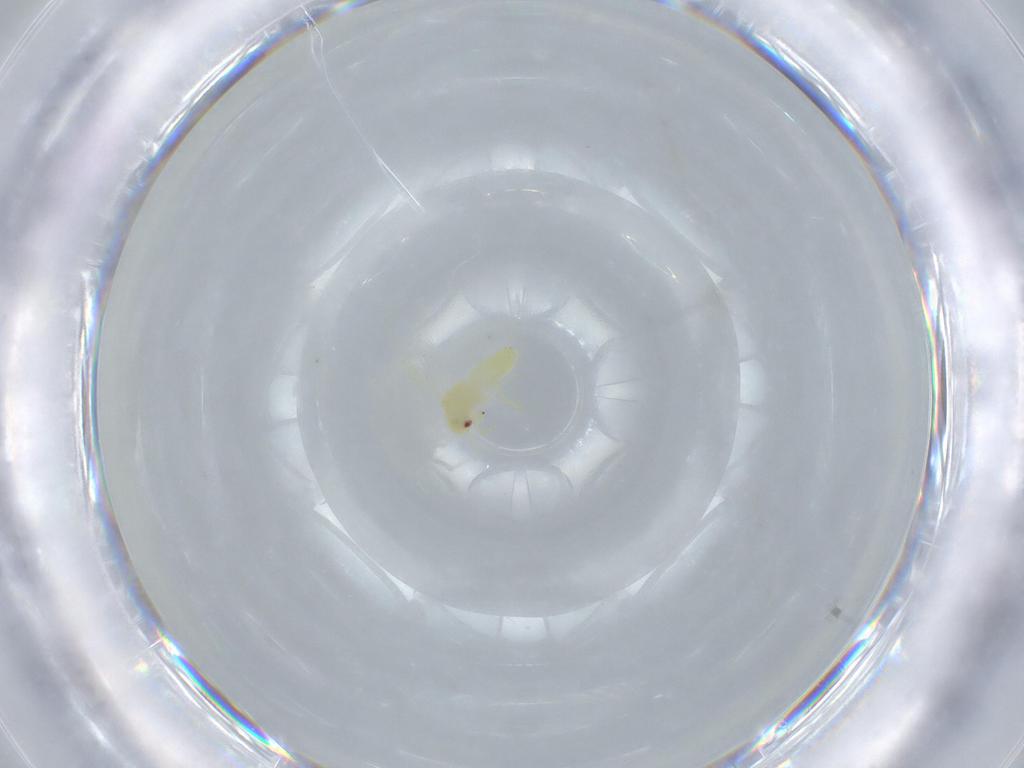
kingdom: Animalia
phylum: Arthropoda
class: Insecta
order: Hemiptera
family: Aleyrodidae
